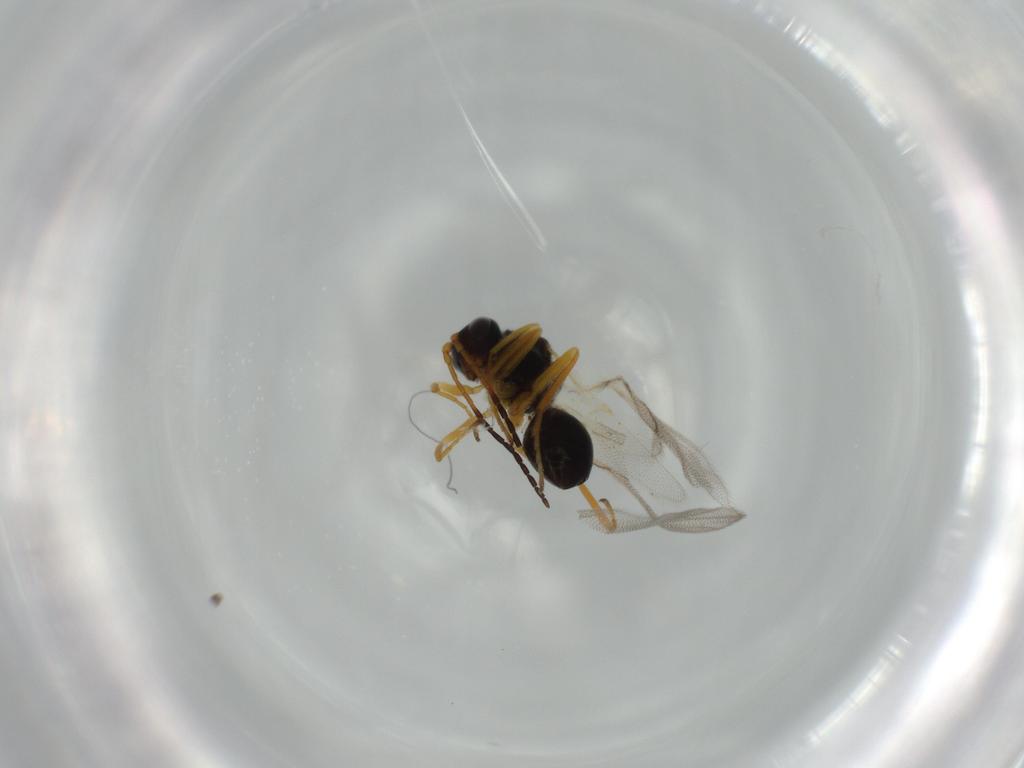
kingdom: Animalia
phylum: Arthropoda
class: Insecta
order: Hymenoptera
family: Figitidae
